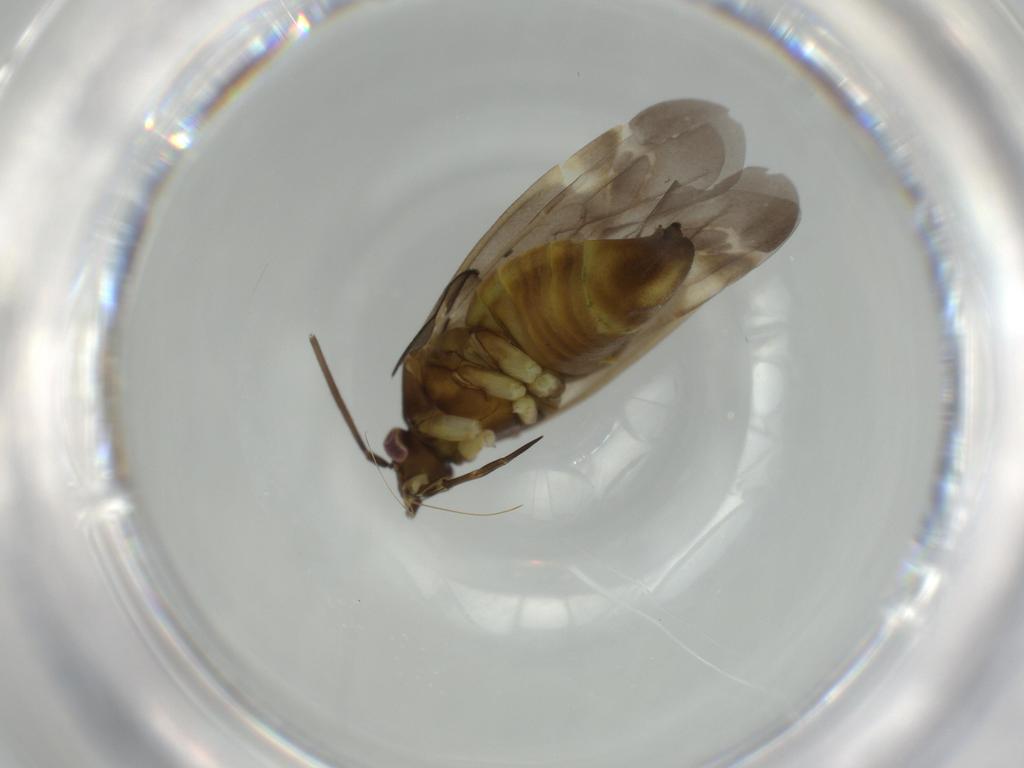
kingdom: Animalia
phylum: Arthropoda
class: Insecta
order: Hemiptera
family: Miridae
